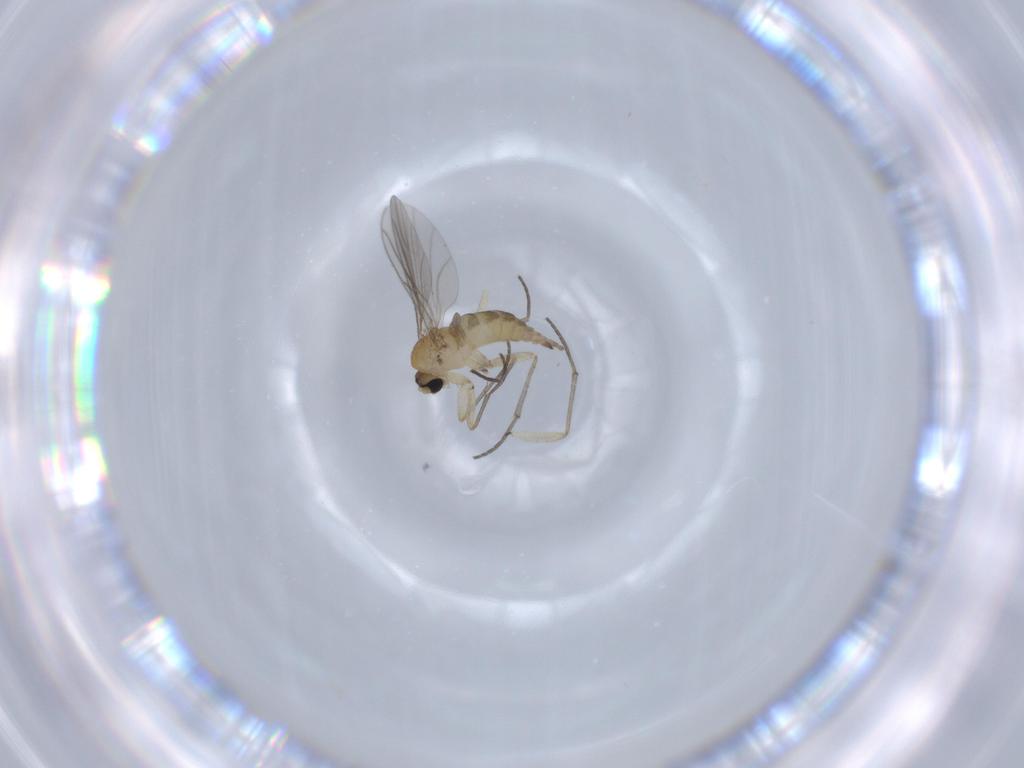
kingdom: Animalia
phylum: Arthropoda
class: Insecta
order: Diptera
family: Sciaridae
